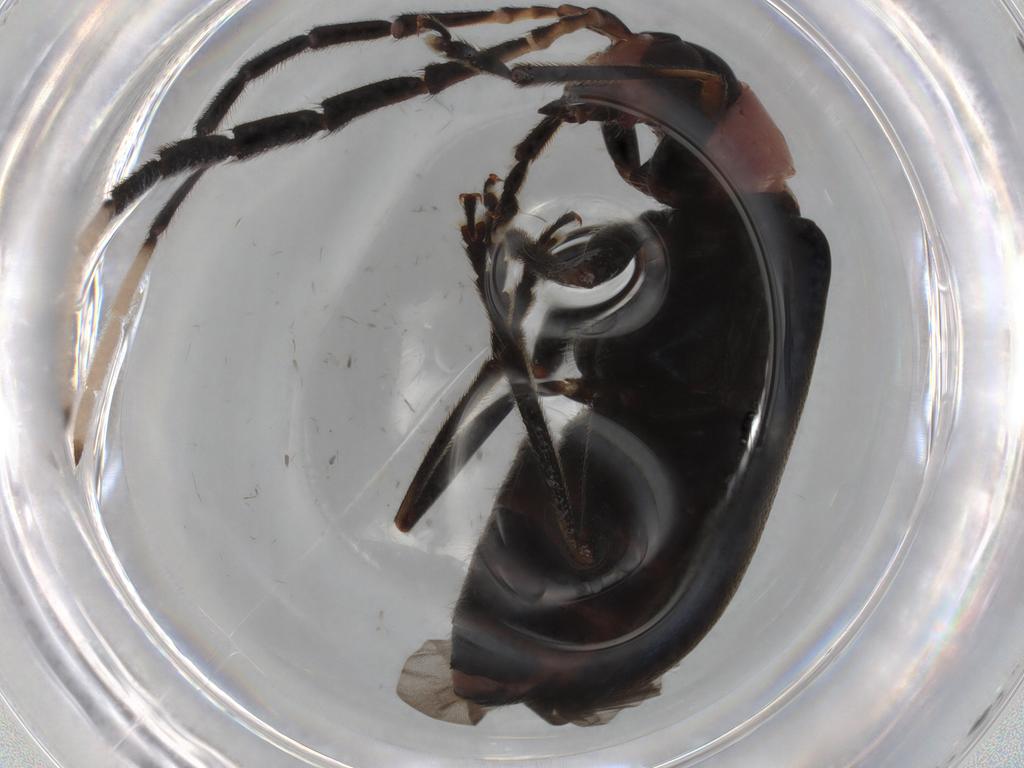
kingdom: Animalia
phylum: Arthropoda
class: Insecta
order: Coleoptera
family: Chrysomelidae
